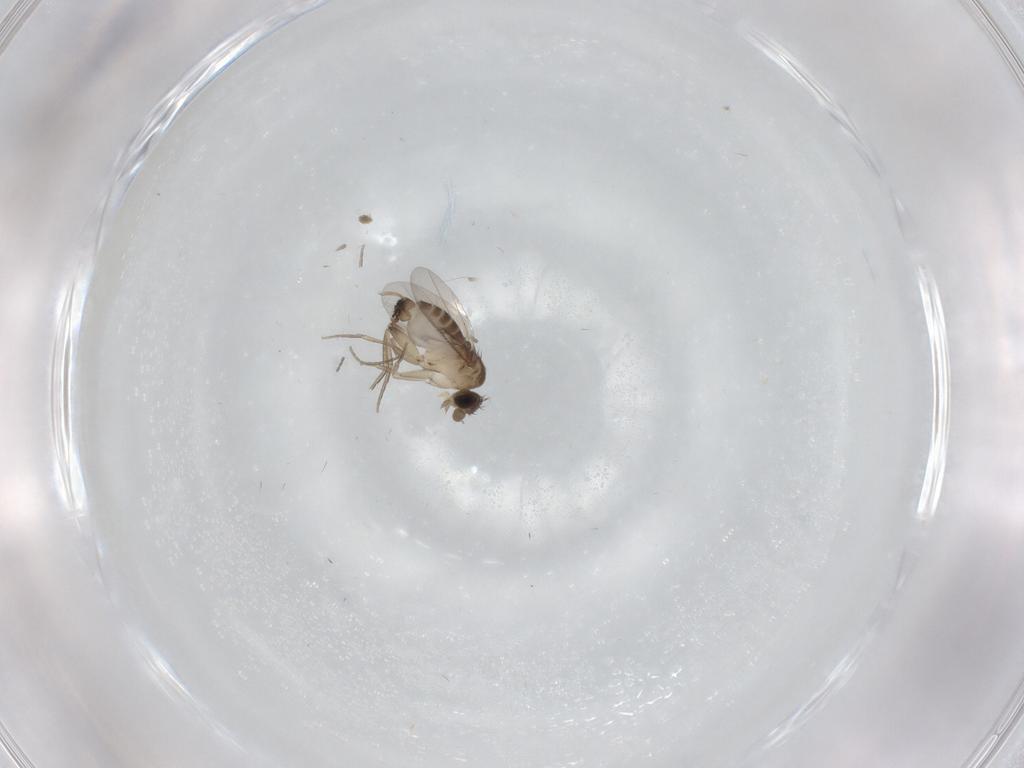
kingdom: Animalia
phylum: Arthropoda
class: Insecta
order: Diptera
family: Phoridae
